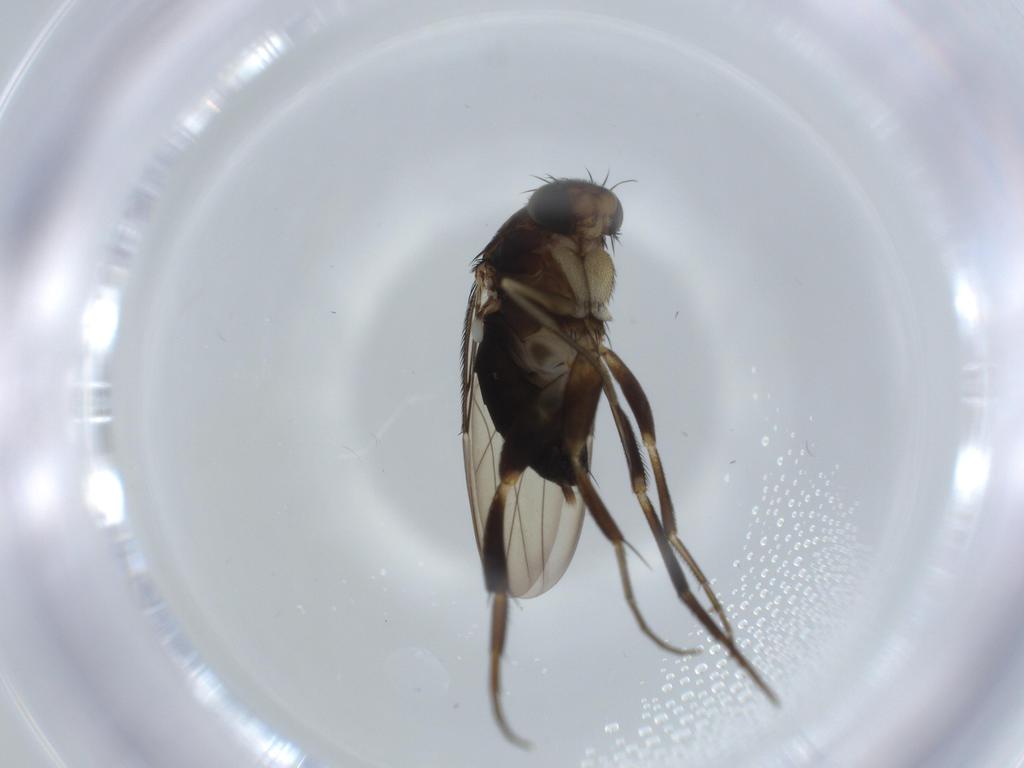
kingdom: Animalia
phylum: Arthropoda
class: Insecta
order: Diptera
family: Phoridae
